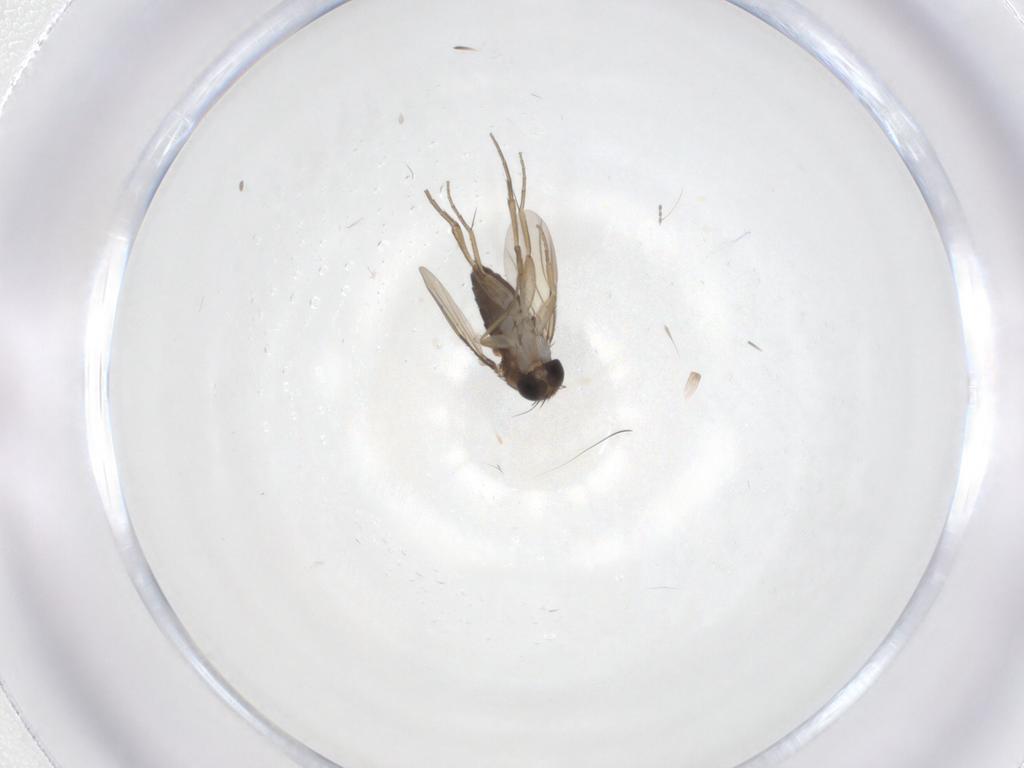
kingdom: Animalia
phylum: Arthropoda
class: Insecta
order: Diptera
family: Phoridae
